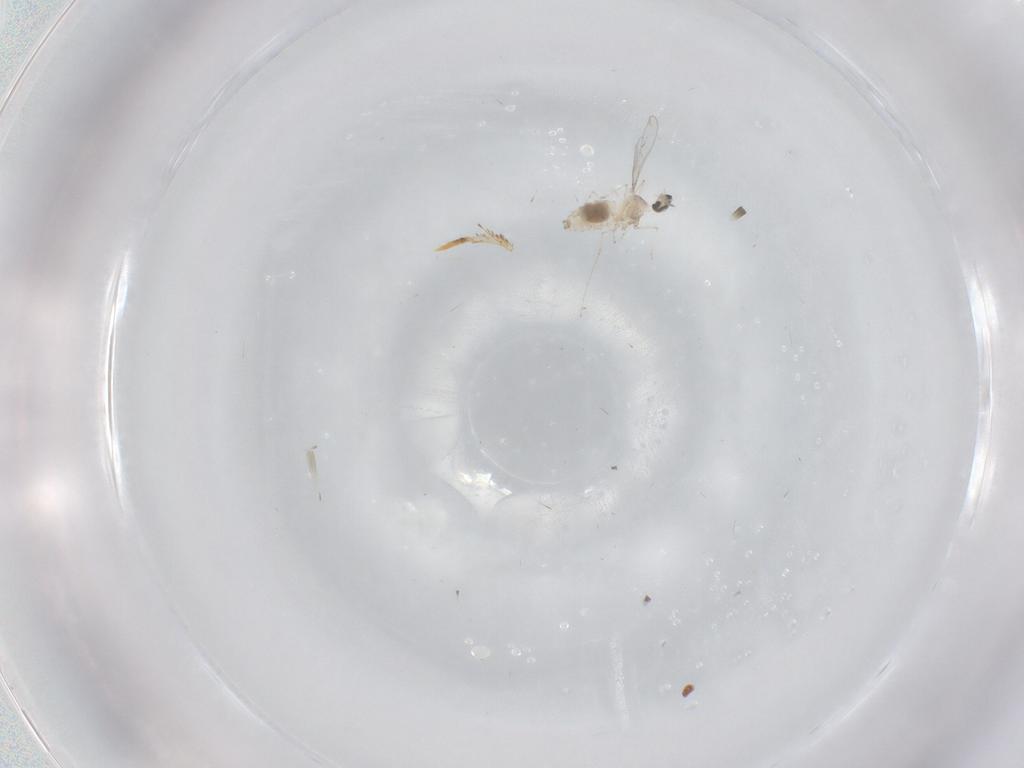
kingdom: Animalia
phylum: Arthropoda
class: Insecta
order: Diptera
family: Cecidomyiidae
